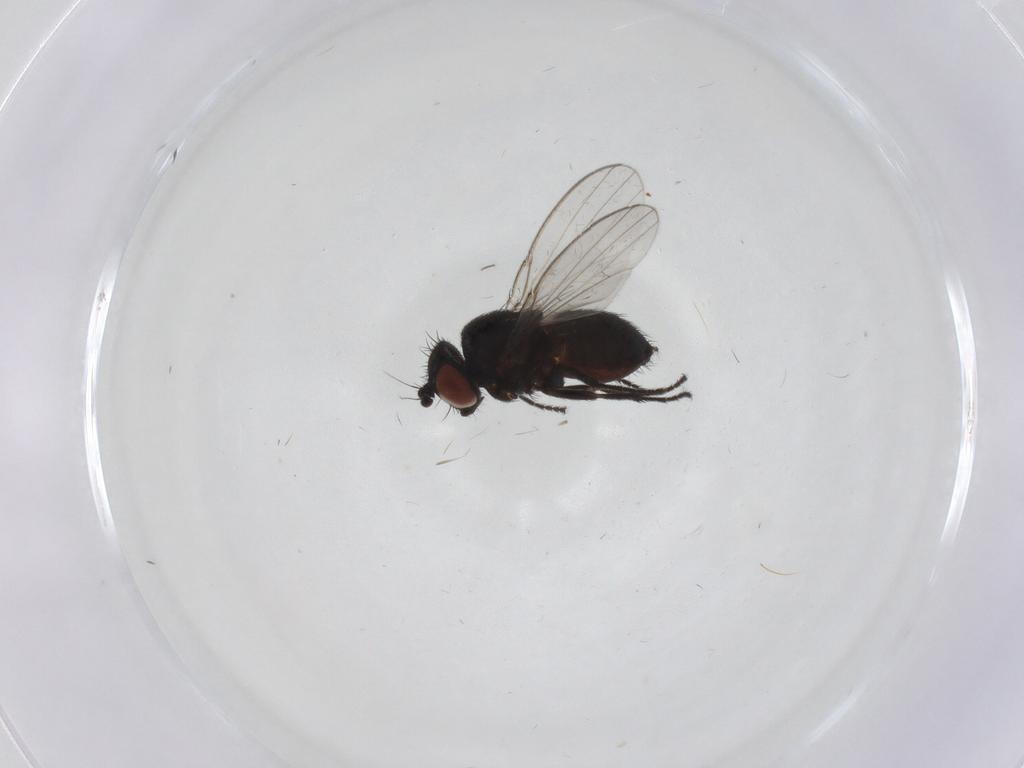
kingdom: Animalia
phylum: Arthropoda
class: Insecta
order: Diptera
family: Milichiidae
